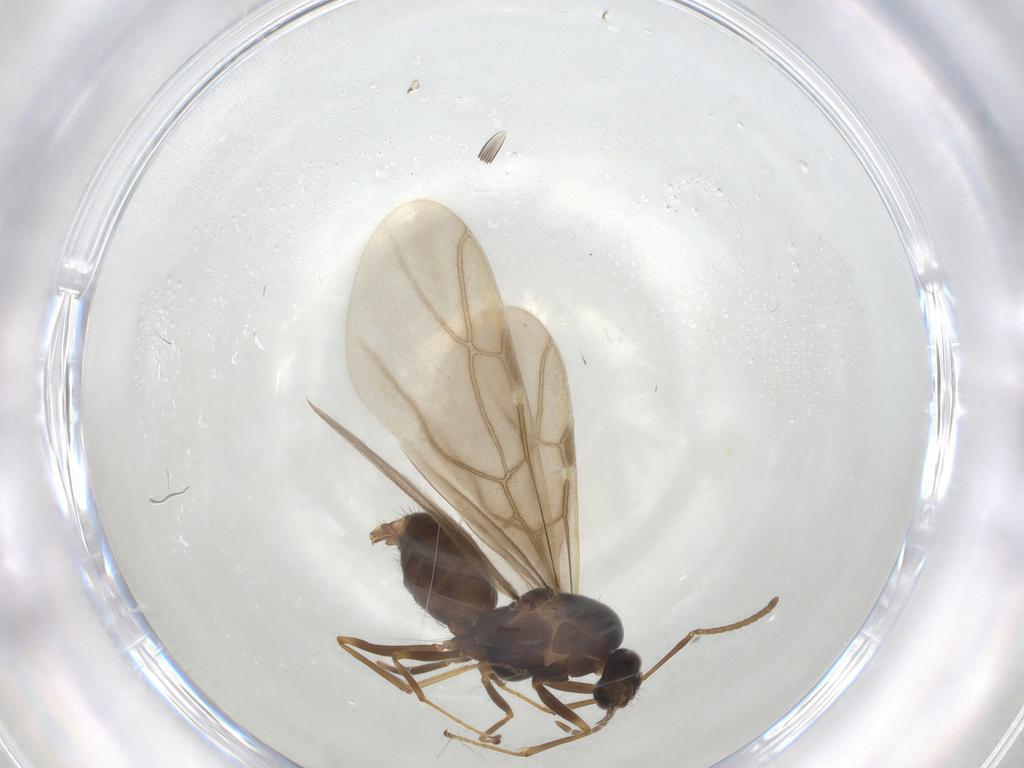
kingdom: Animalia
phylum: Arthropoda
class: Insecta
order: Hymenoptera
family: Formicidae
